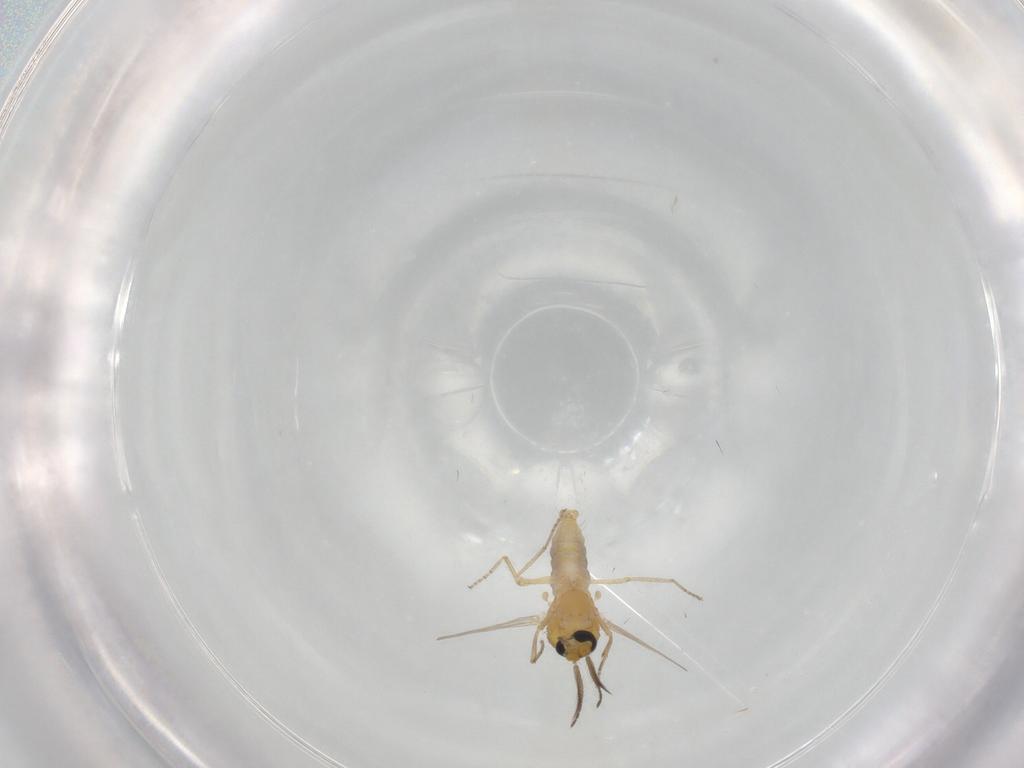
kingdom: Animalia
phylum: Arthropoda
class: Insecta
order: Diptera
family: Ceratopogonidae
